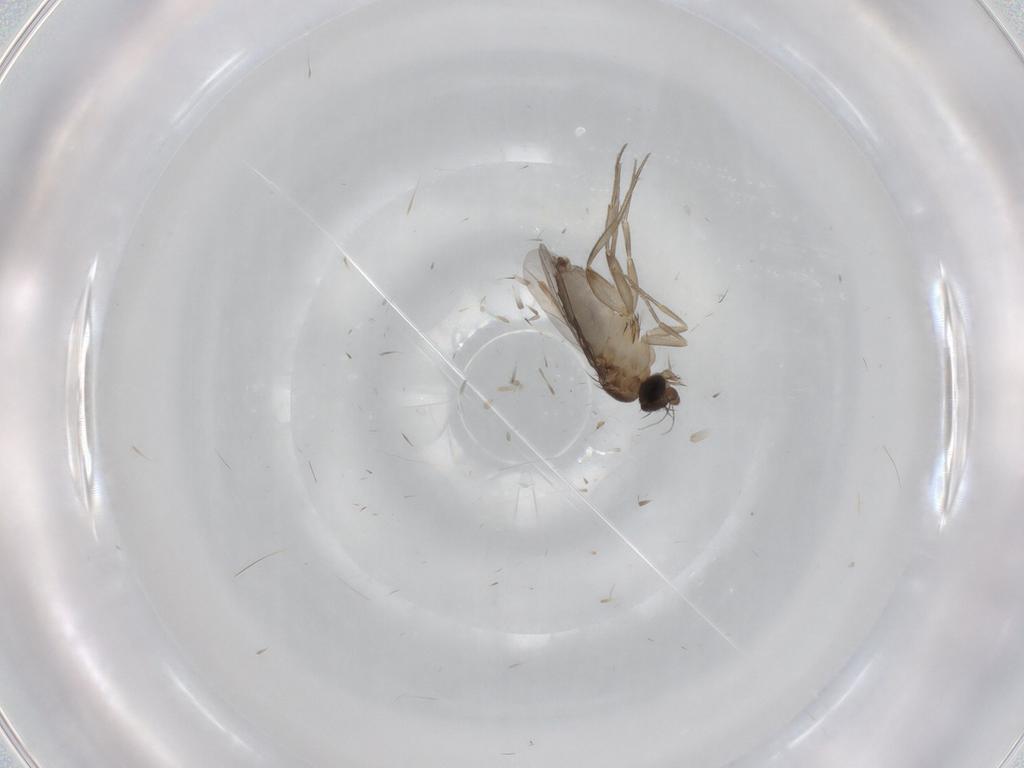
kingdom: Animalia
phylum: Arthropoda
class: Insecta
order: Diptera
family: Phoridae
